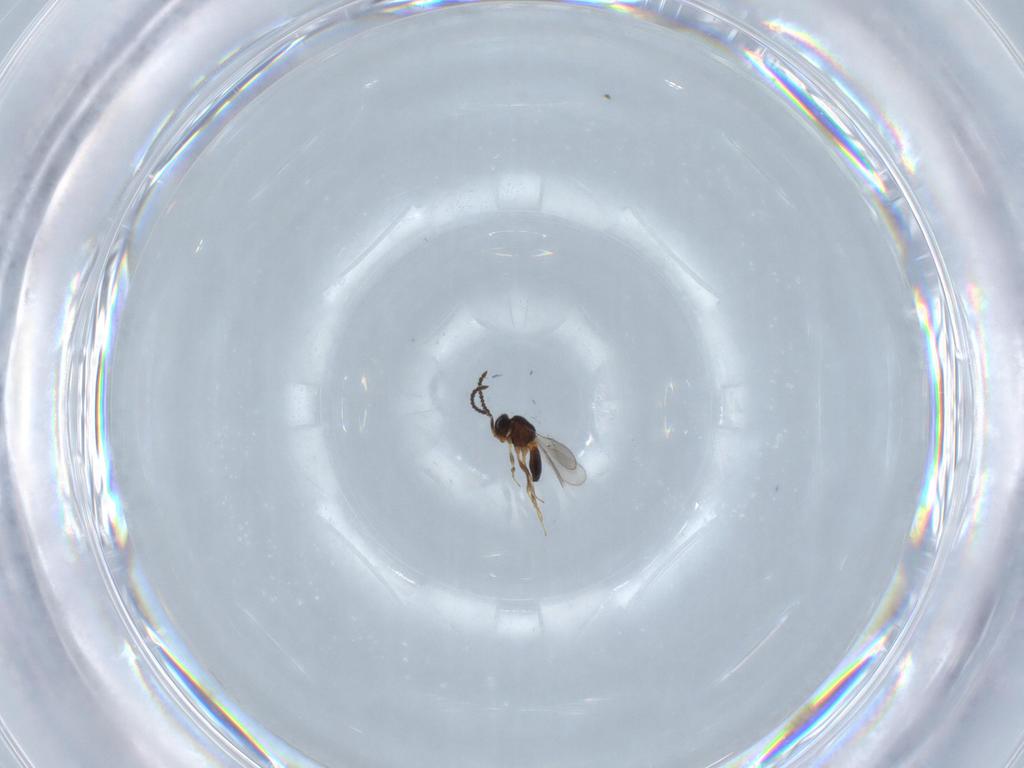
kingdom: Animalia
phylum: Arthropoda
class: Insecta
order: Hymenoptera
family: Scelionidae
